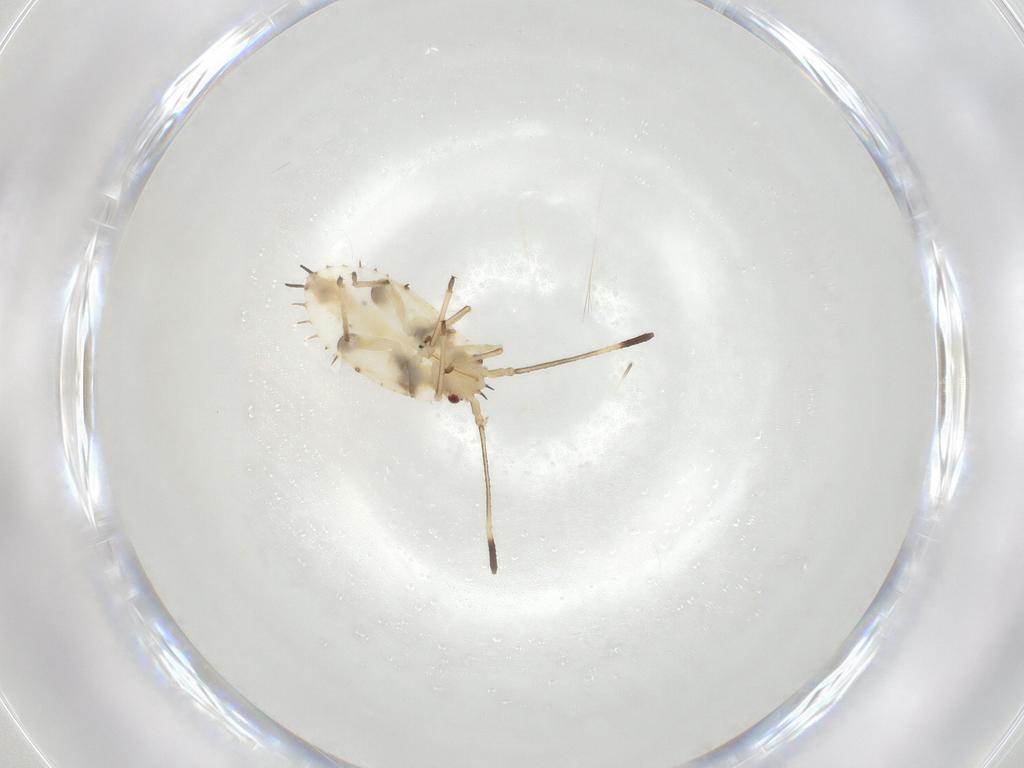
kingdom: Animalia
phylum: Arthropoda
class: Insecta
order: Hemiptera
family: Tingidae
